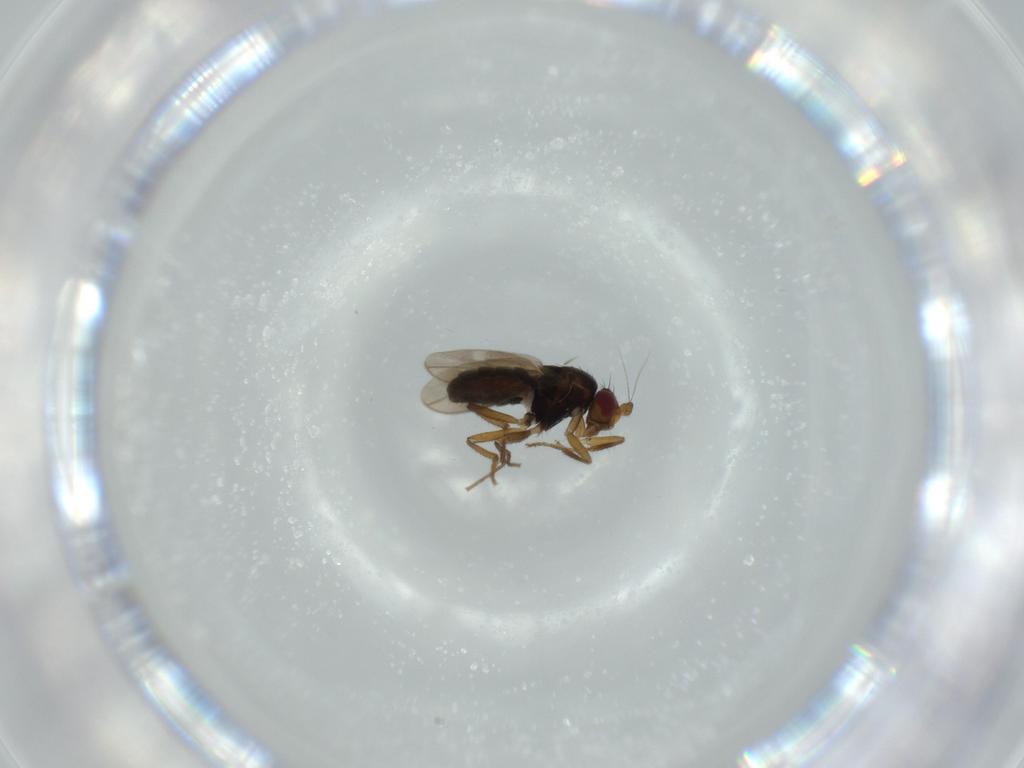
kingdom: Animalia
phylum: Arthropoda
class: Insecta
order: Diptera
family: Sphaeroceridae
